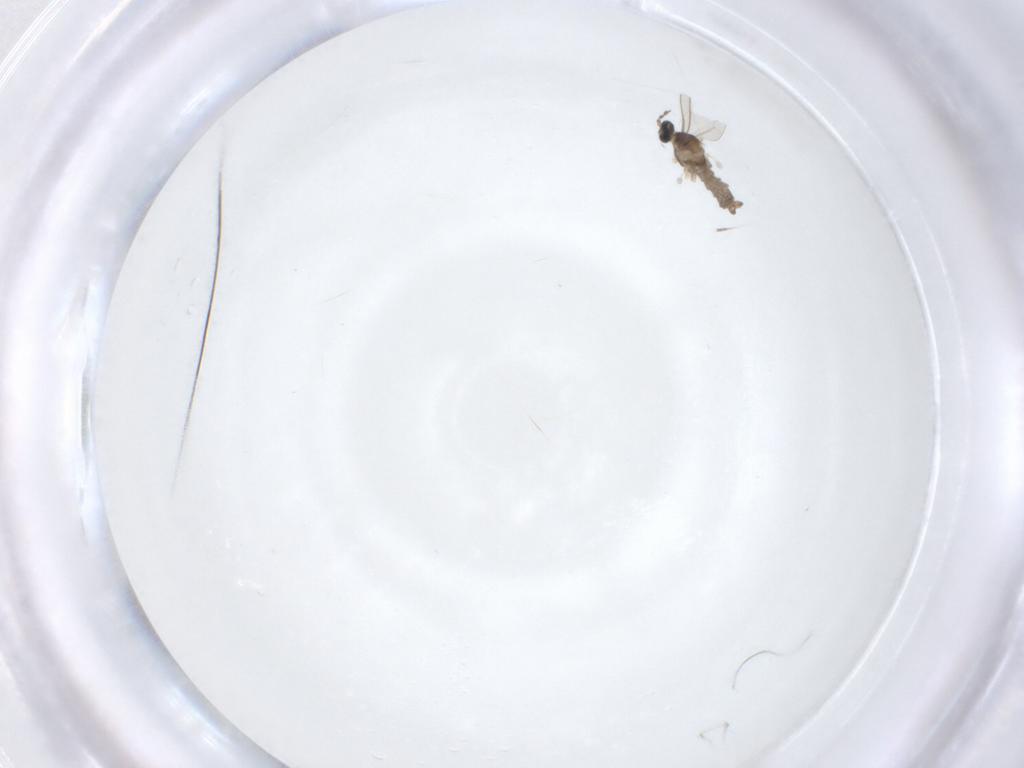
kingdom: Animalia
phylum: Arthropoda
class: Insecta
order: Diptera
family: Cecidomyiidae
